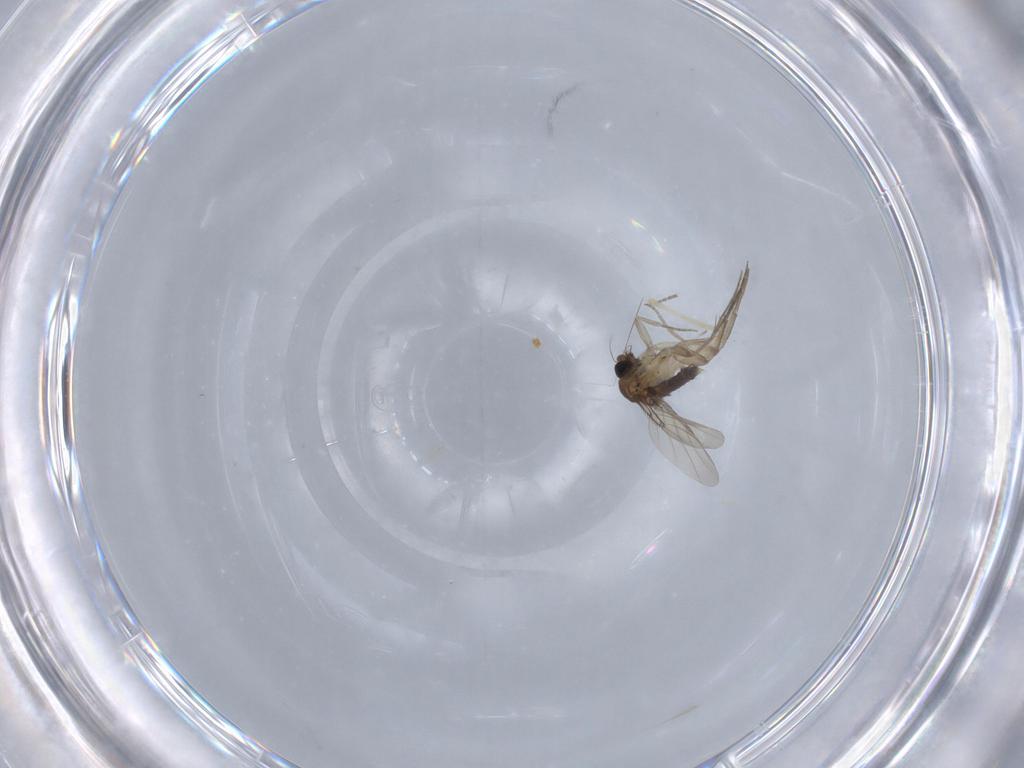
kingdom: Animalia
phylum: Arthropoda
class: Insecta
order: Diptera
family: Phoridae
